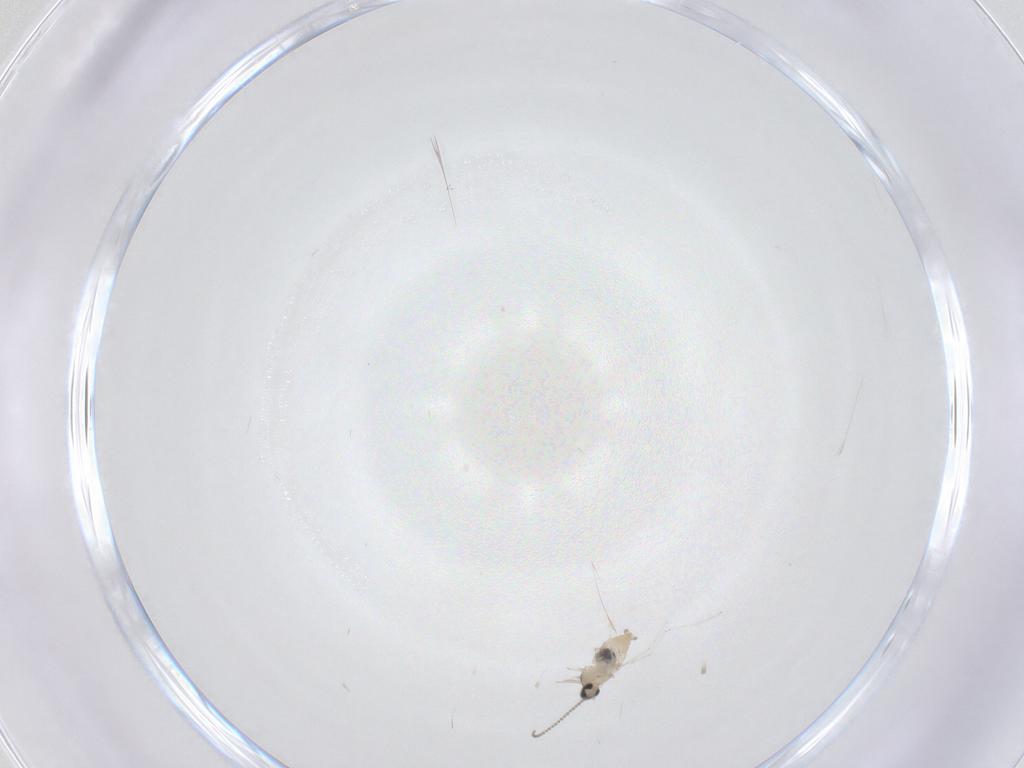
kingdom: Animalia
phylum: Arthropoda
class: Insecta
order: Diptera
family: Cecidomyiidae
